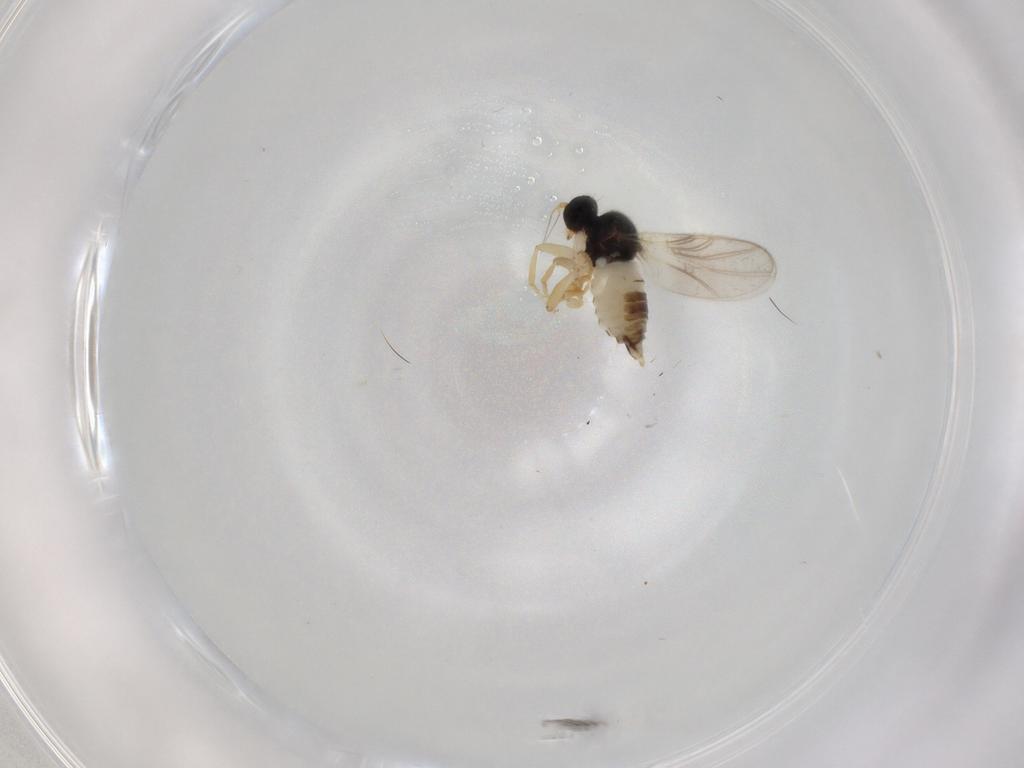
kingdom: Animalia
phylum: Arthropoda
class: Insecta
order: Diptera
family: Hybotidae
